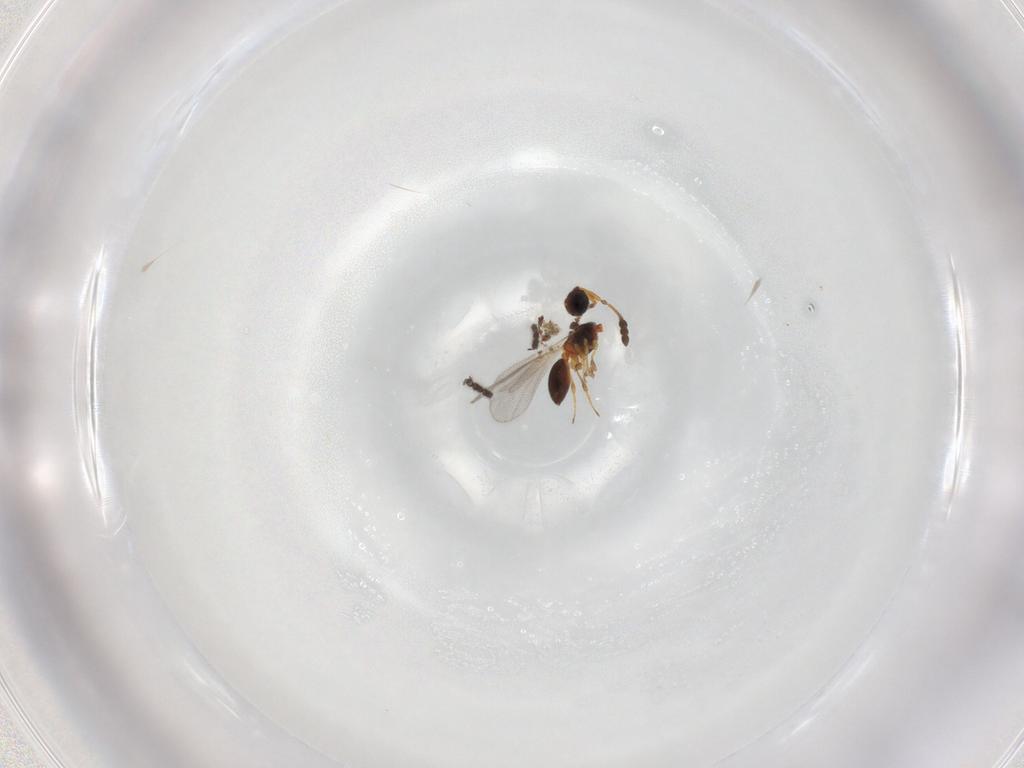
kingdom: Animalia
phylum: Arthropoda
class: Insecta
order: Hymenoptera
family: Diapriidae
